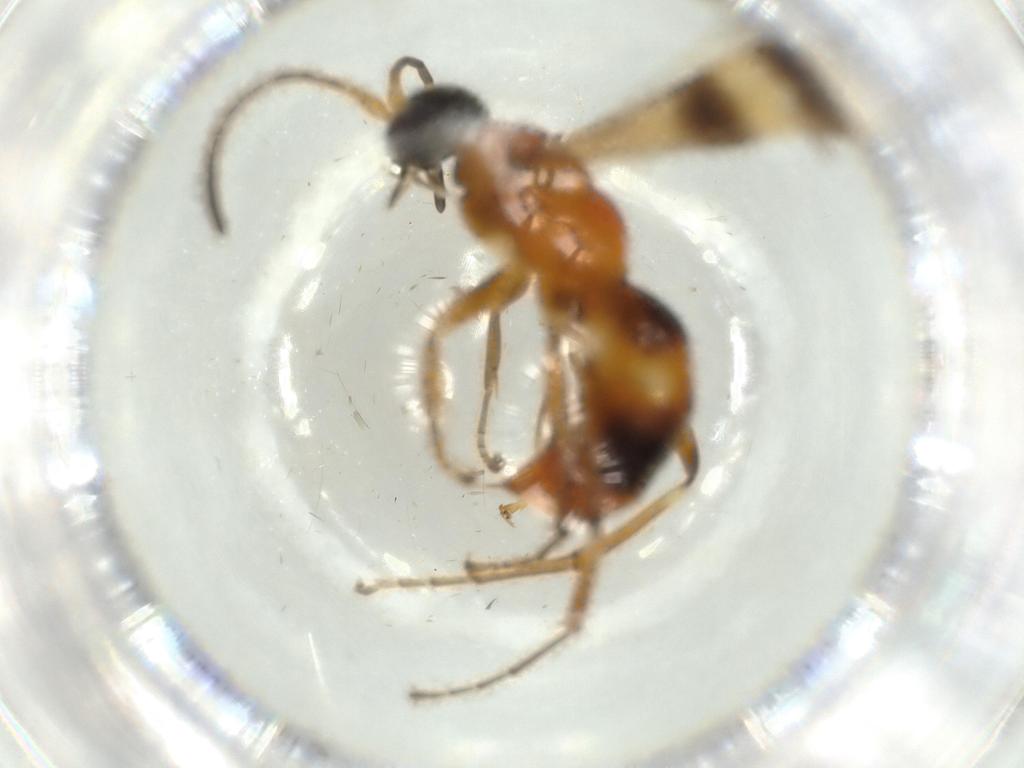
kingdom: Animalia
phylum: Arthropoda
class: Insecta
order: Hymenoptera
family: Pompilidae
